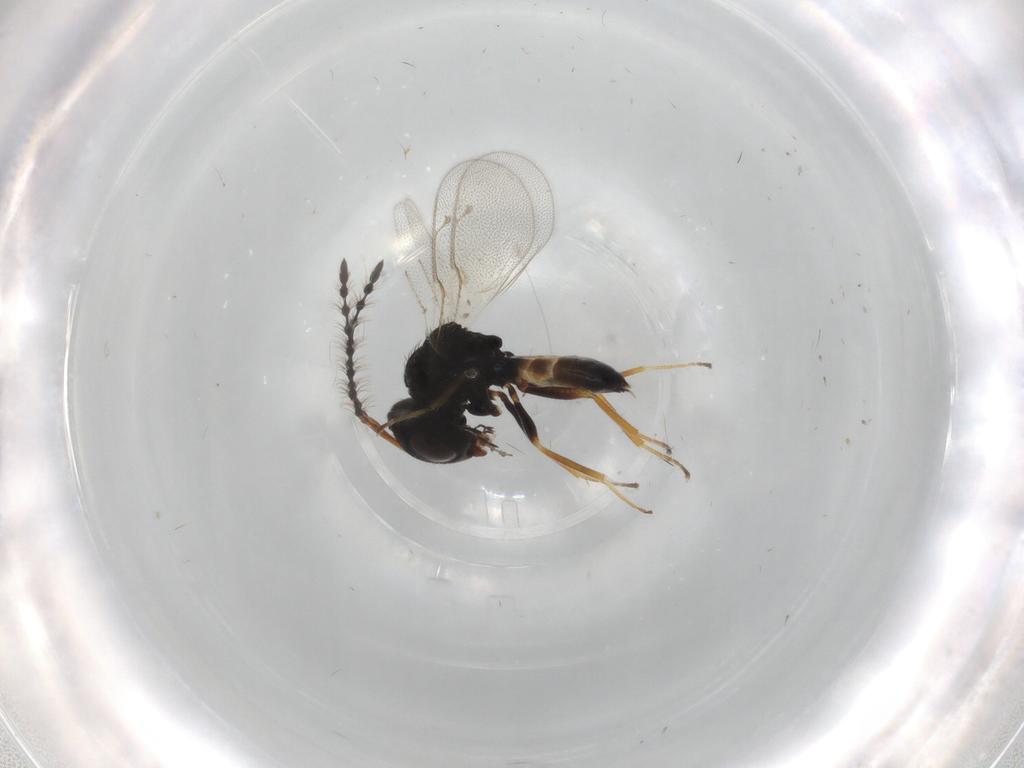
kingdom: Animalia
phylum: Arthropoda
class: Insecta
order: Hymenoptera
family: Pteromalidae
